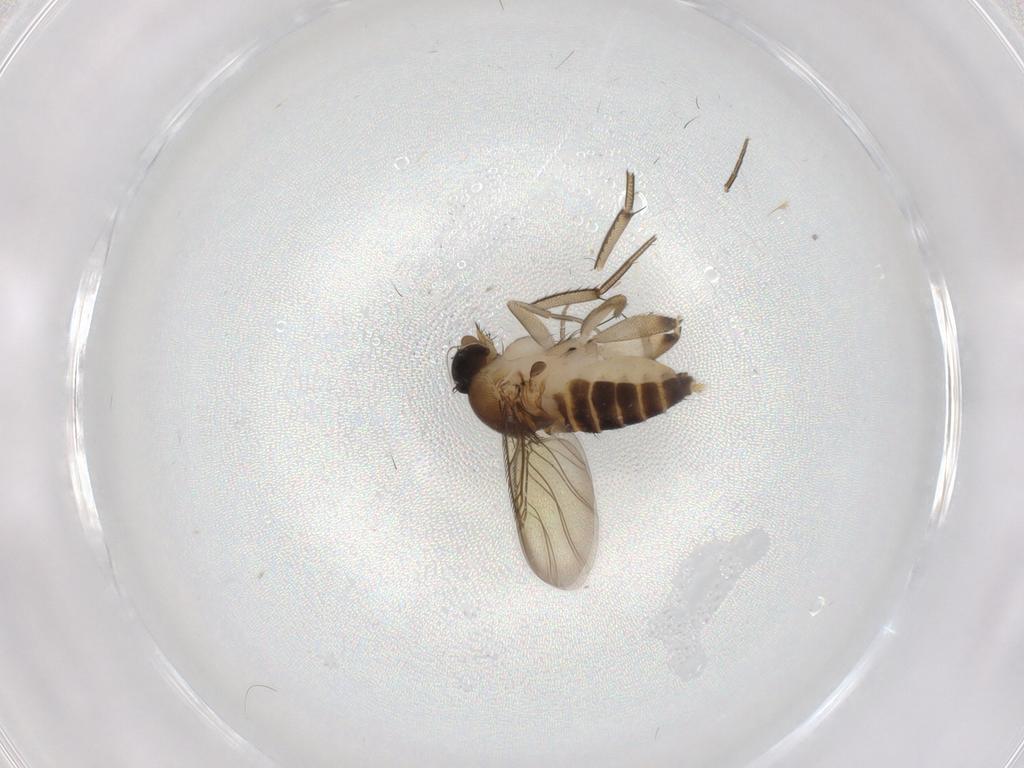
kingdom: Animalia
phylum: Arthropoda
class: Insecta
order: Diptera
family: Phoridae
